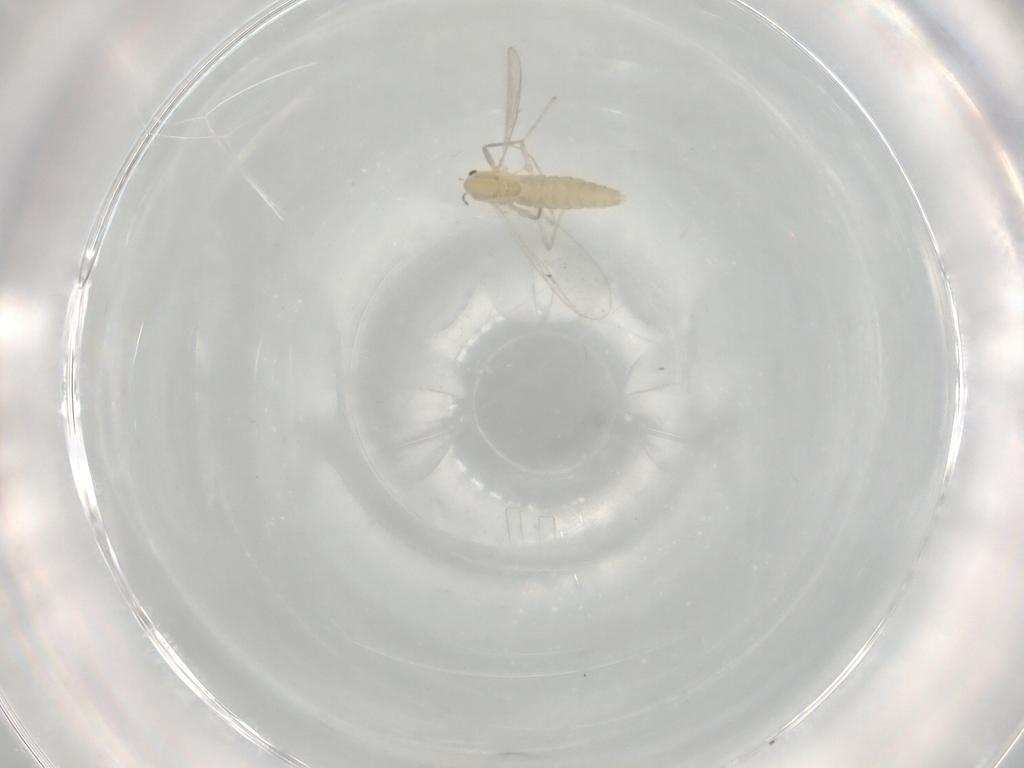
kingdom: Animalia
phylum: Arthropoda
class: Insecta
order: Diptera
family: Chironomidae
